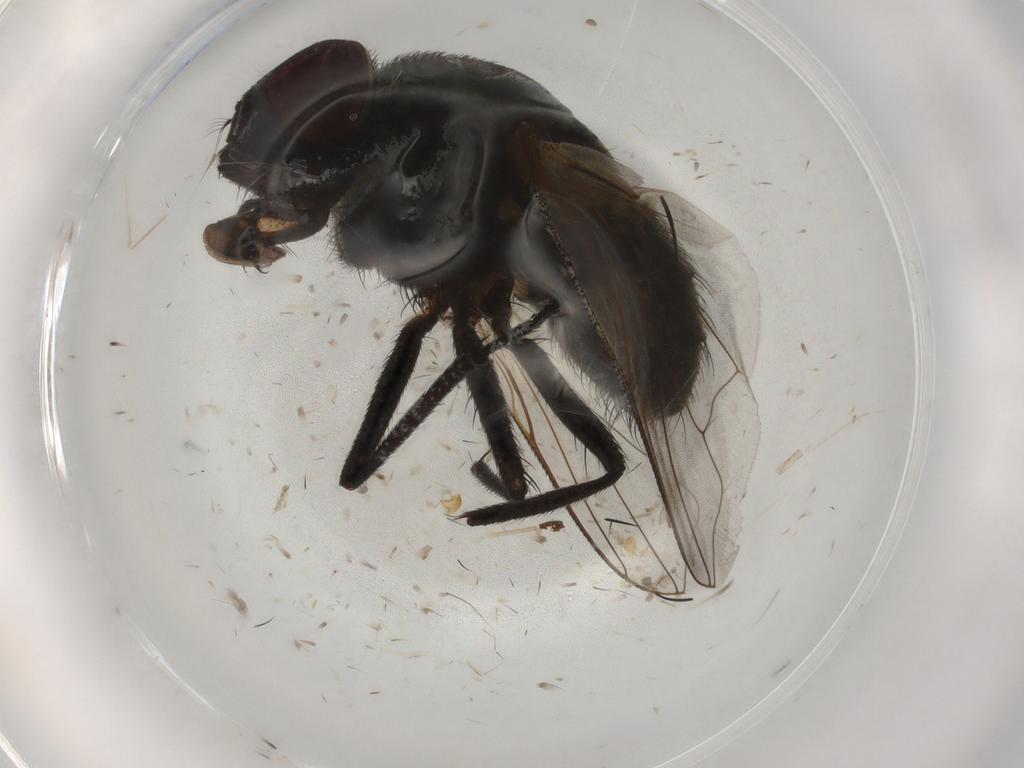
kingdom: Animalia
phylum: Arthropoda
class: Insecta
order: Diptera
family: Muscidae
